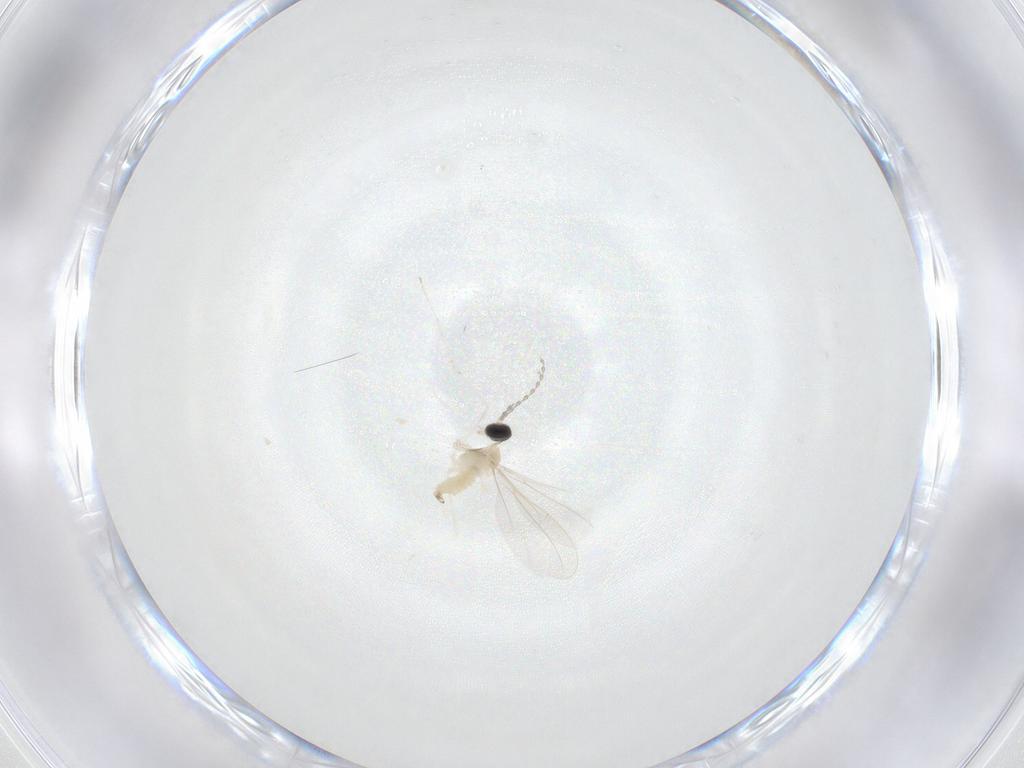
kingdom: Animalia
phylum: Arthropoda
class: Insecta
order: Diptera
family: Cecidomyiidae
